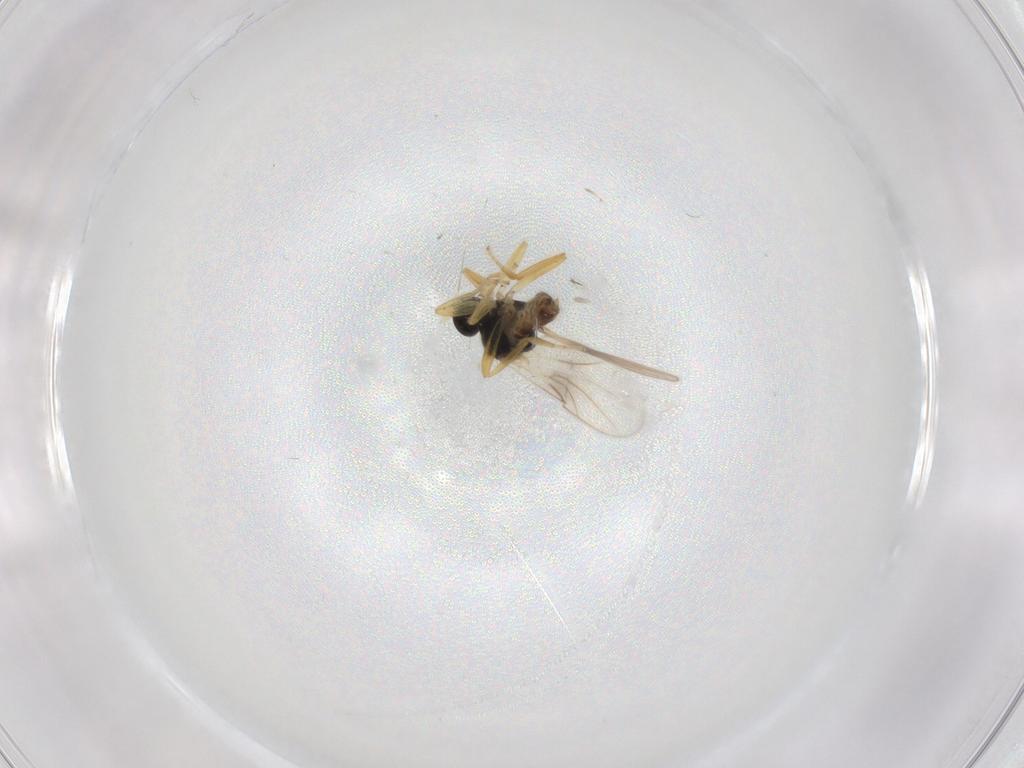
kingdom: Animalia
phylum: Arthropoda
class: Insecta
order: Diptera
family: Hybotidae
